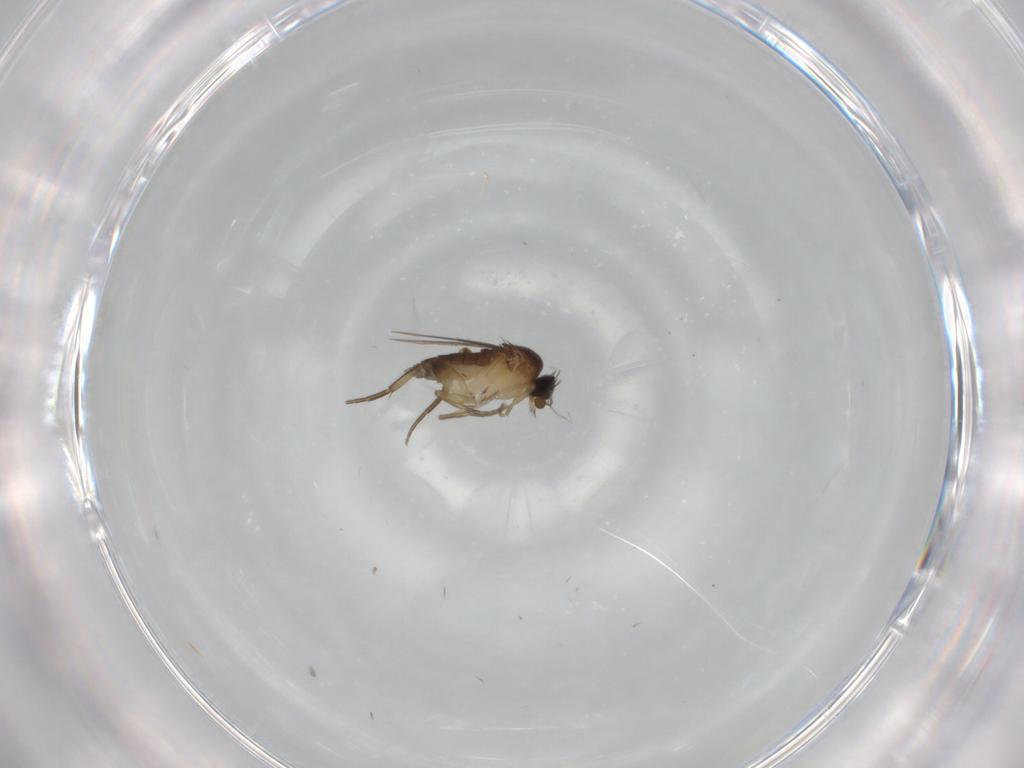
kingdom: Animalia
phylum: Arthropoda
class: Insecta
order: Diptera
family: Phoridae
